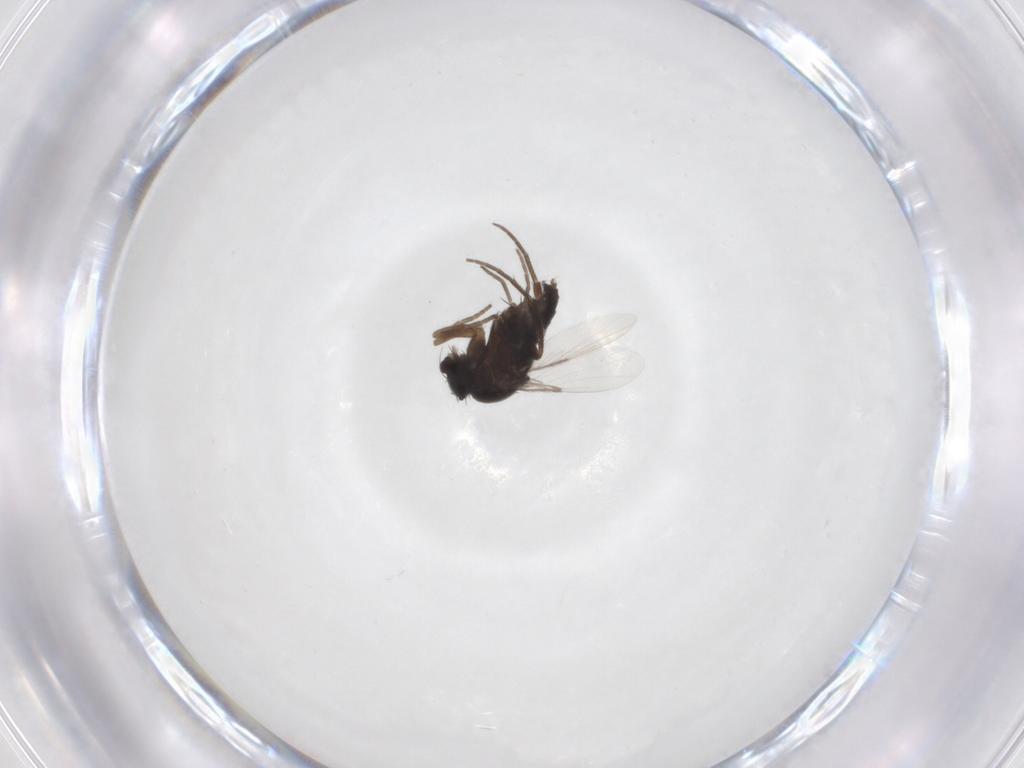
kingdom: Animalia
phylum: Arthropoda
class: Insecta
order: Diptera
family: Phoridae
